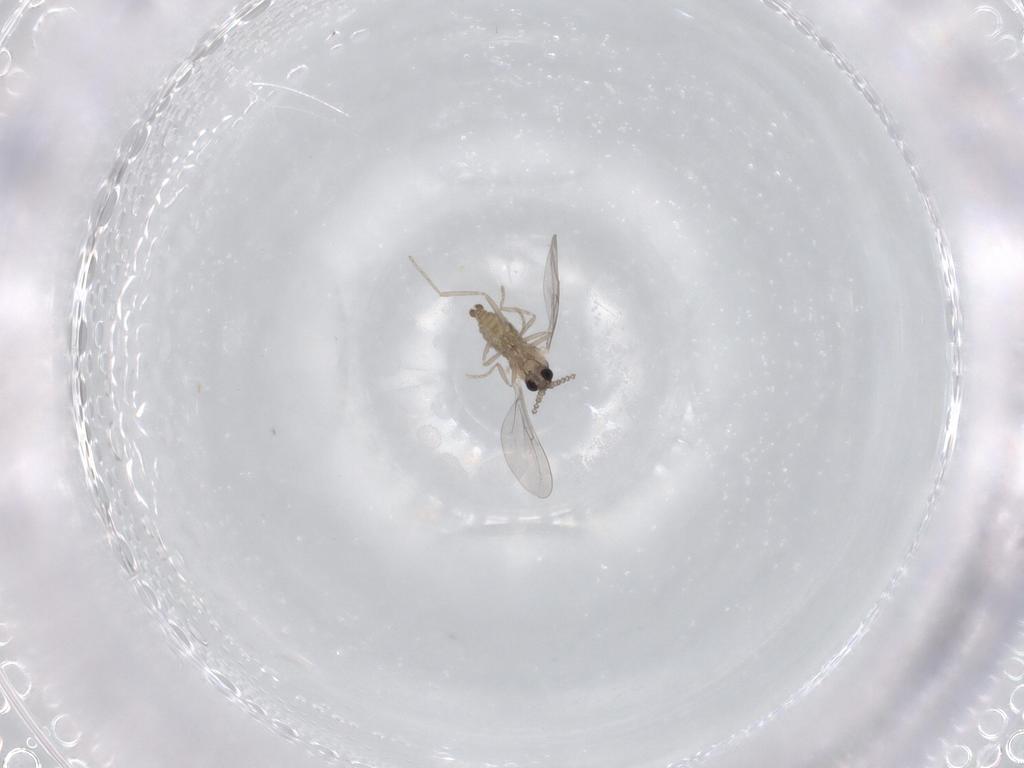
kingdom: Animalia
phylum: Arthropoda
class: Insecta
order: Diptera
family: Cecidomyiidae
